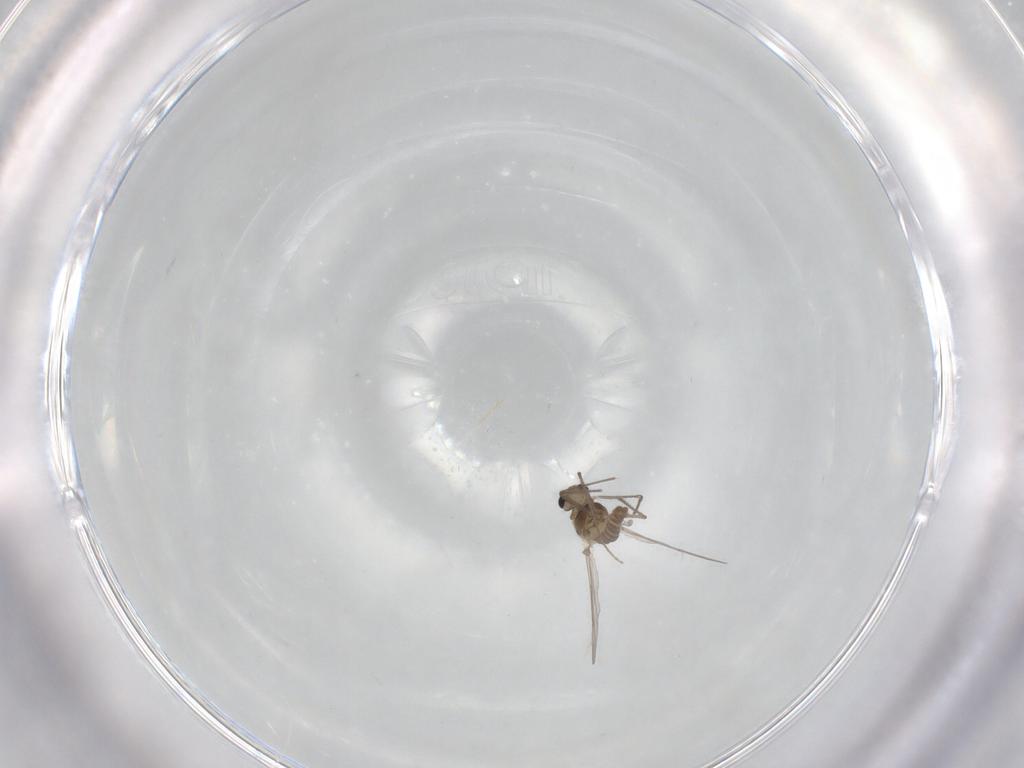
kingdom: Animalia
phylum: Arthropoda
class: Insecta
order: Diptera
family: Chironomidae
